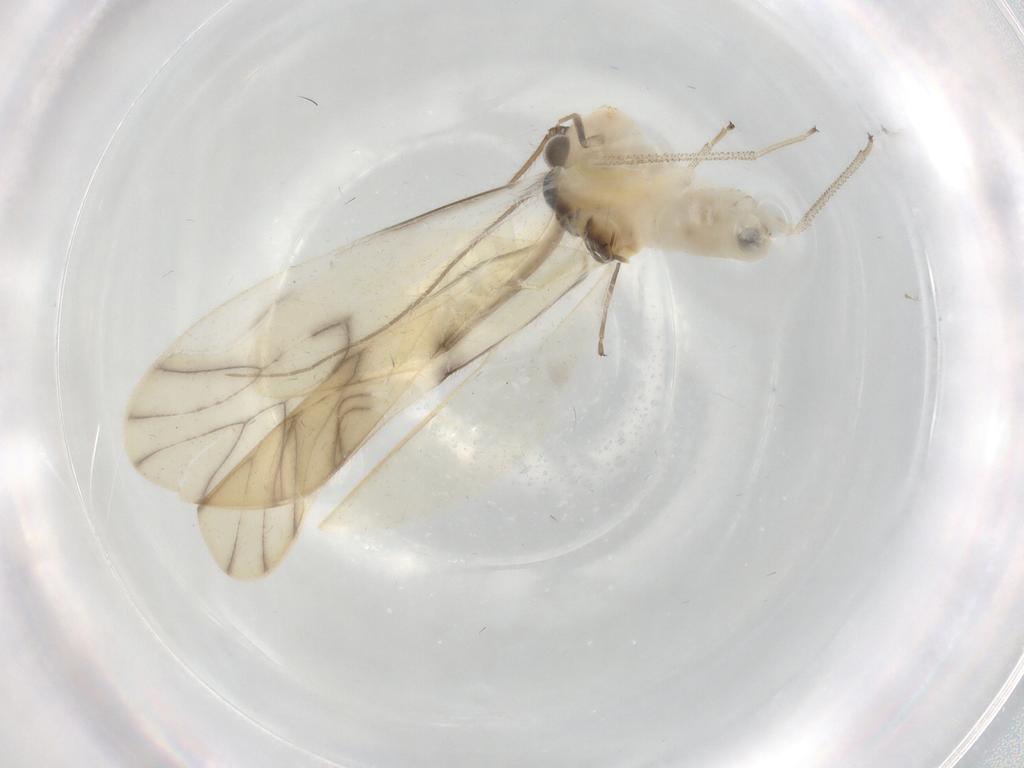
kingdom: Animalia
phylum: Arthropoda
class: Insecta
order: Psocodea
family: Caeciliusidae
